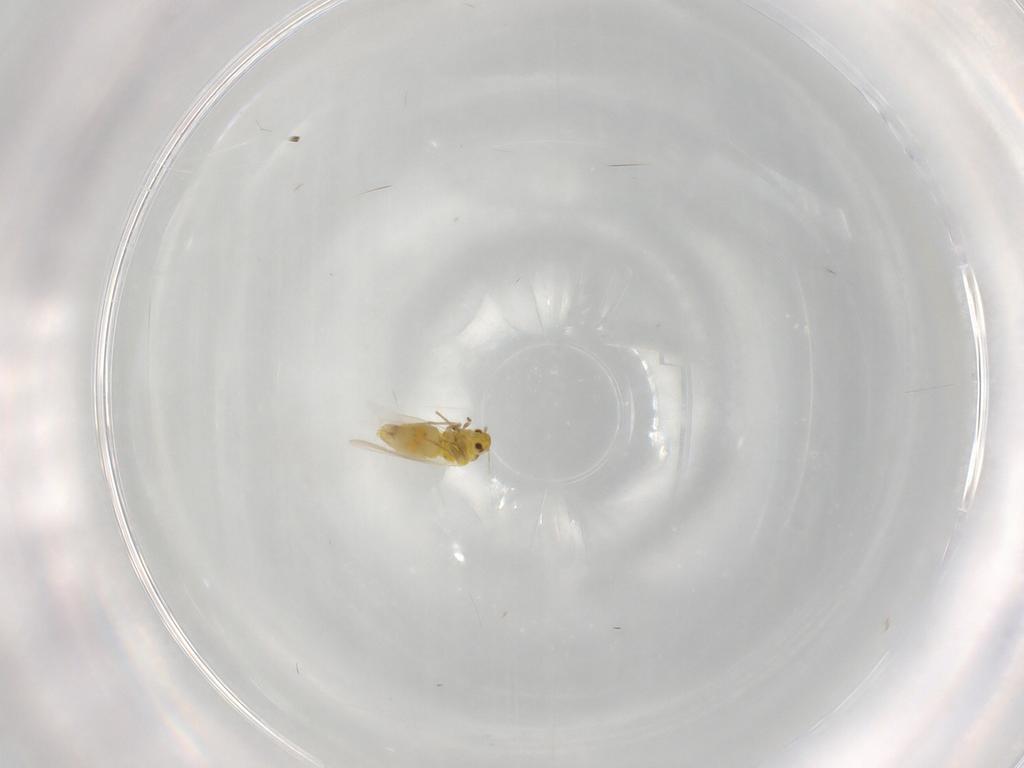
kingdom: Animalia
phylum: Arthropoda
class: Insecta
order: Hemiptera
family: Aleyrodidae
